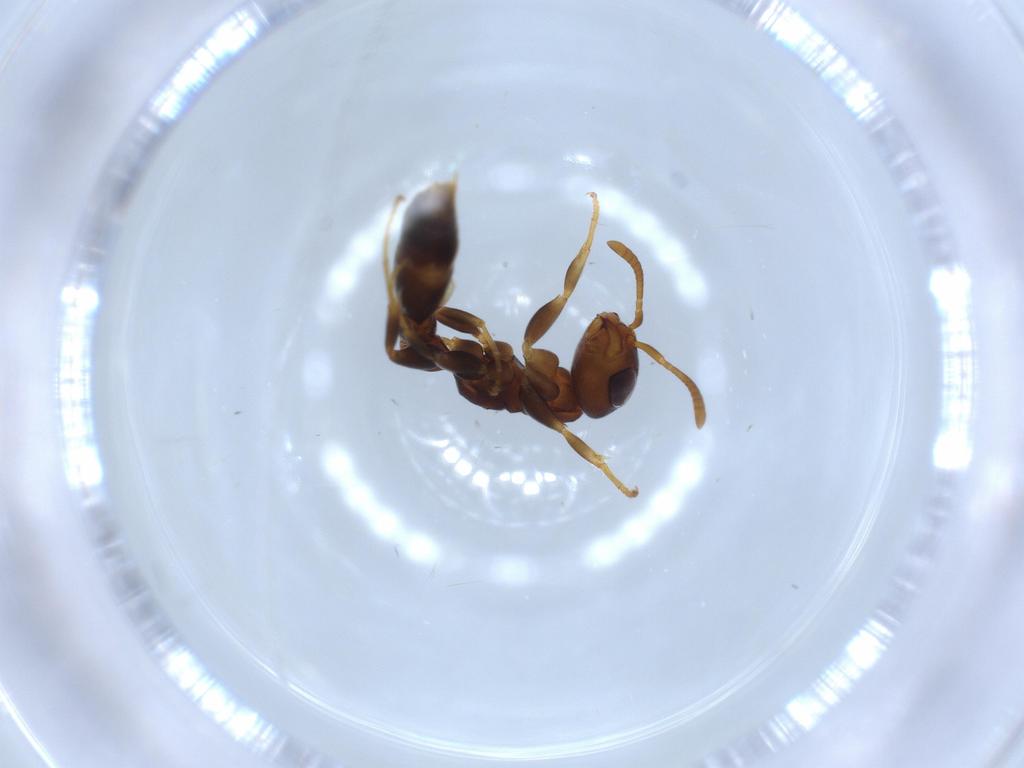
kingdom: Animalia
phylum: Arthropoda
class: Insecta
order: Hymenoptera
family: Formicidae
